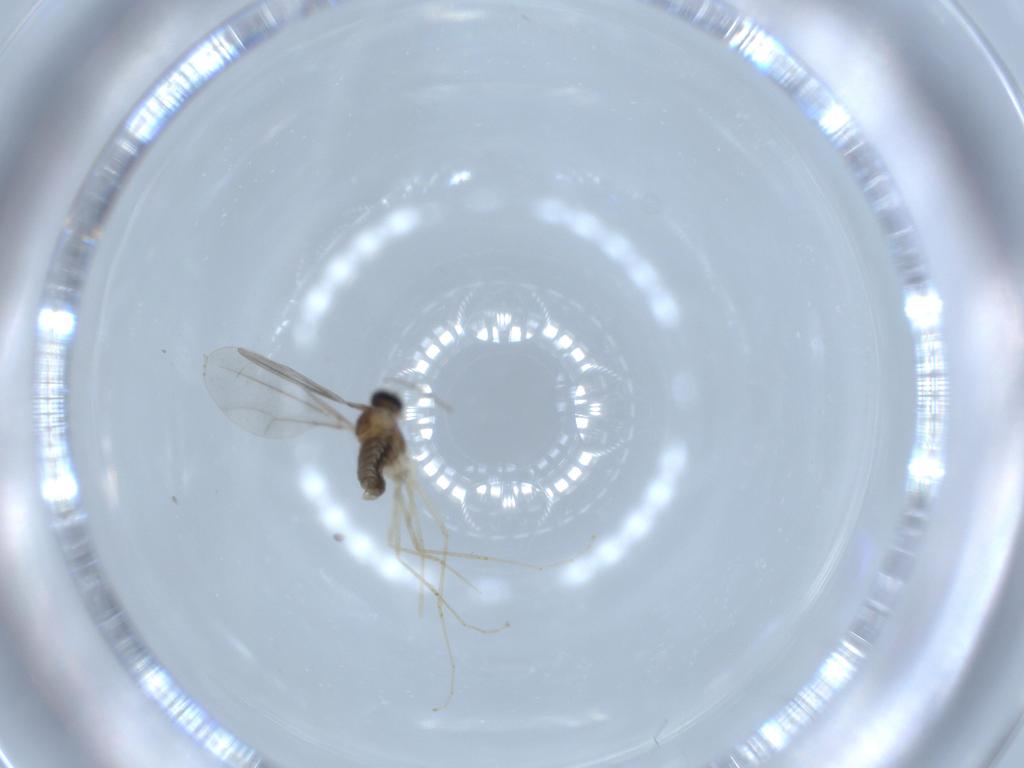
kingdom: Animalia
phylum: Arthropoda
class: Insecta
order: Diptera
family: Cecidomyiidae
